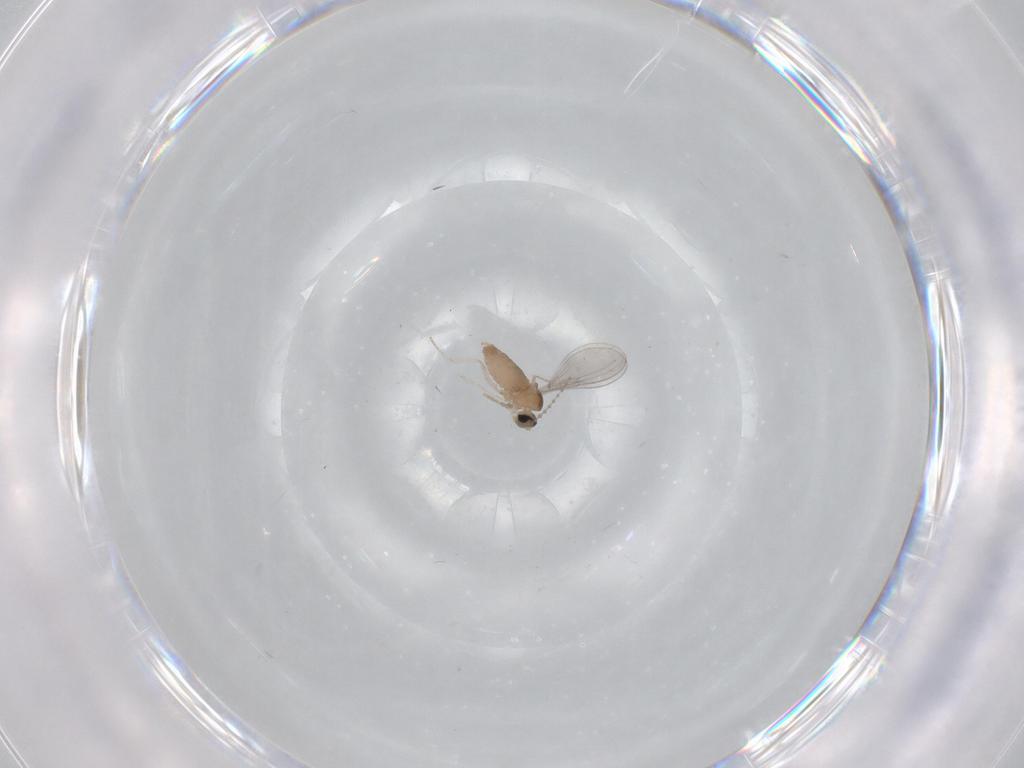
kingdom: Animalia
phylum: Arthropoda
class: Insecta
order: Diptera
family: Cecidomyiidae
